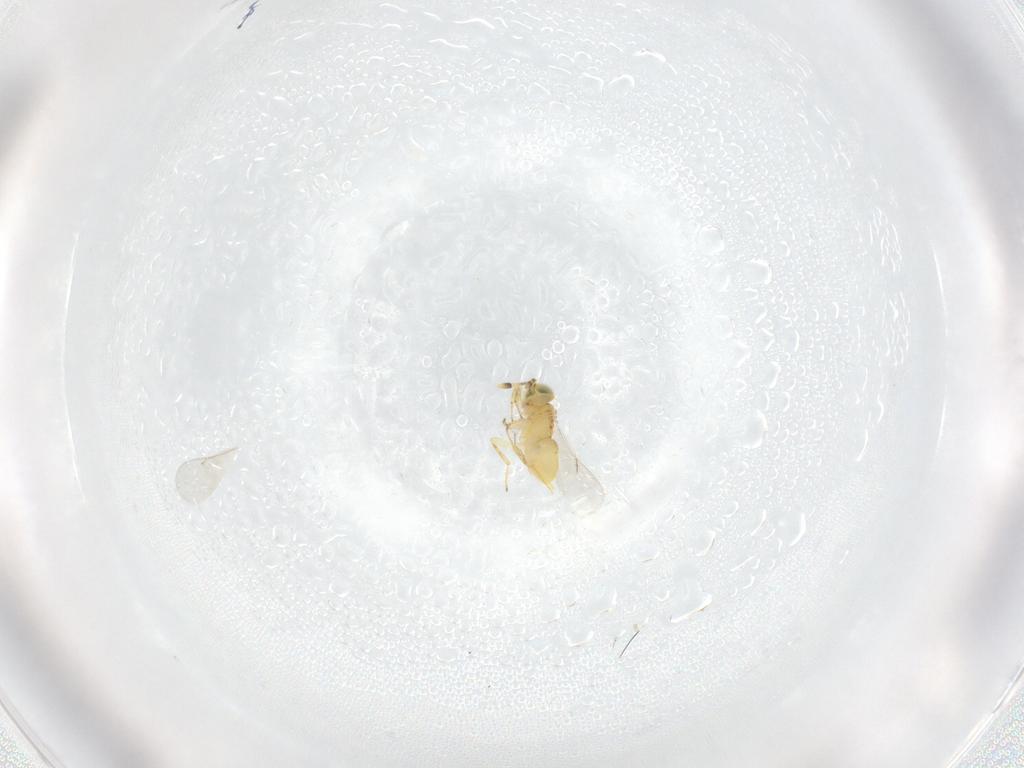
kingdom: Animalia
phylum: Arthropoda
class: Insecta
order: Hymenoptera
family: Encyrtidae
